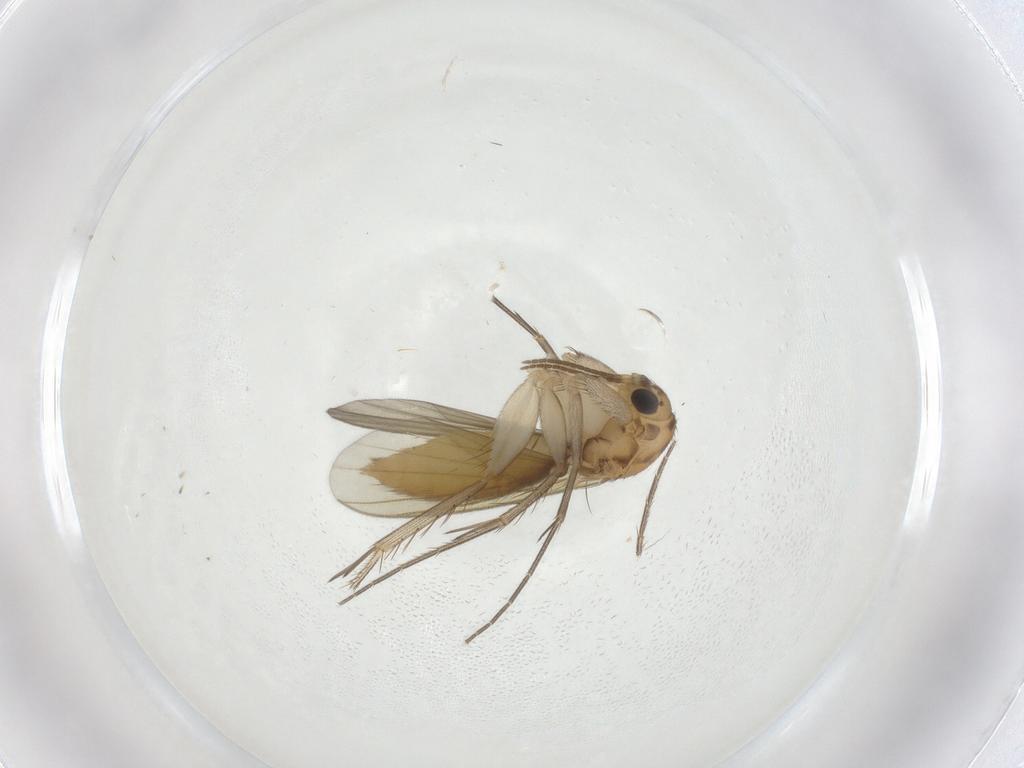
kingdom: Animalia
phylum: Arthropoda
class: Insecta
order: Diptera
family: Mycetophilidae
